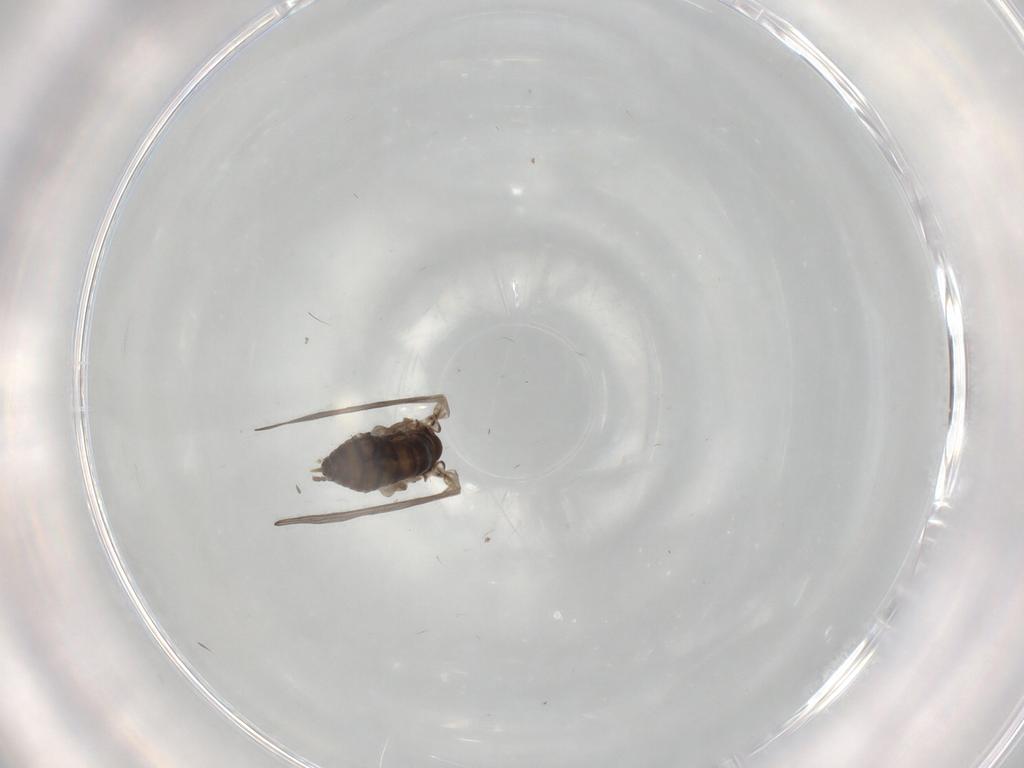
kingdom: Animalia
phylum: Arthropoda
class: Insecta
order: Diptera
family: Psychodidae
